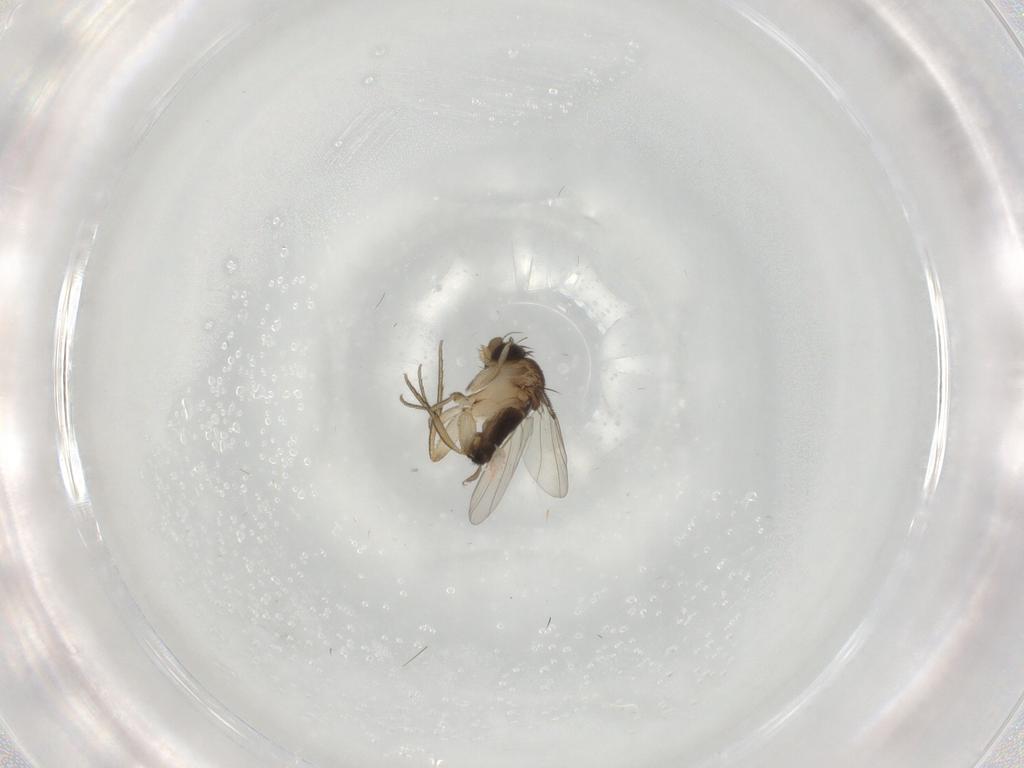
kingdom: Animalia
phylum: Arthropoda
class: Insecta
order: Diptera
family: Phoridae
